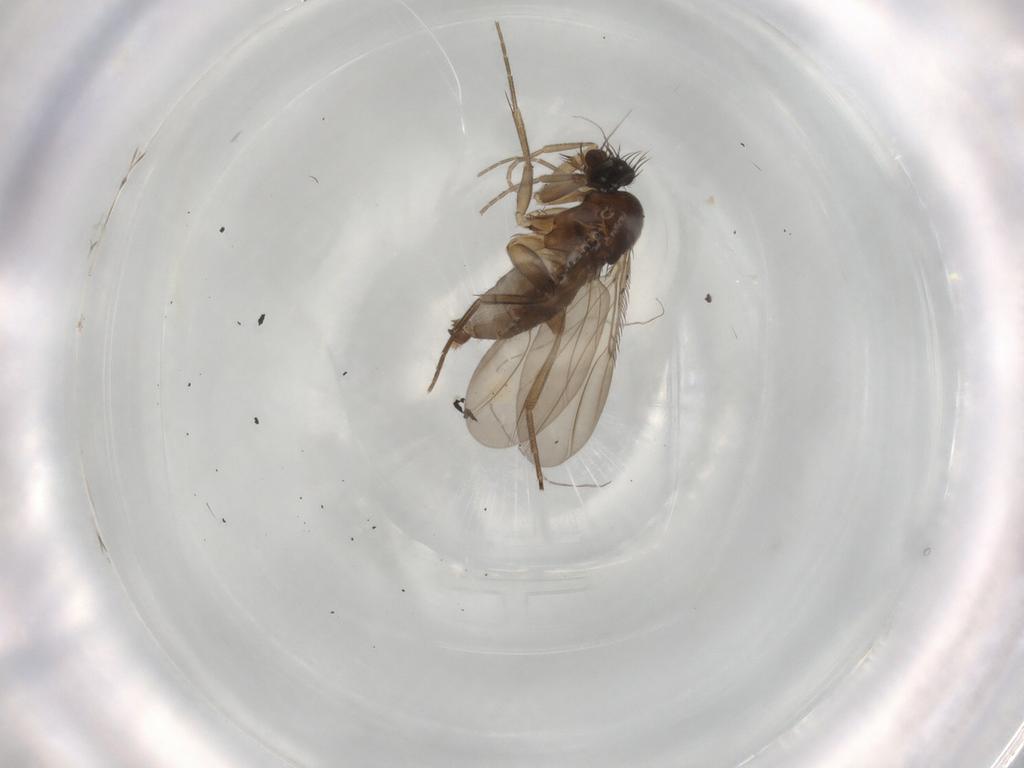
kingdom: Animalia
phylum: Arthropoda
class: Insecta
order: Diptera
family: Phoridae
